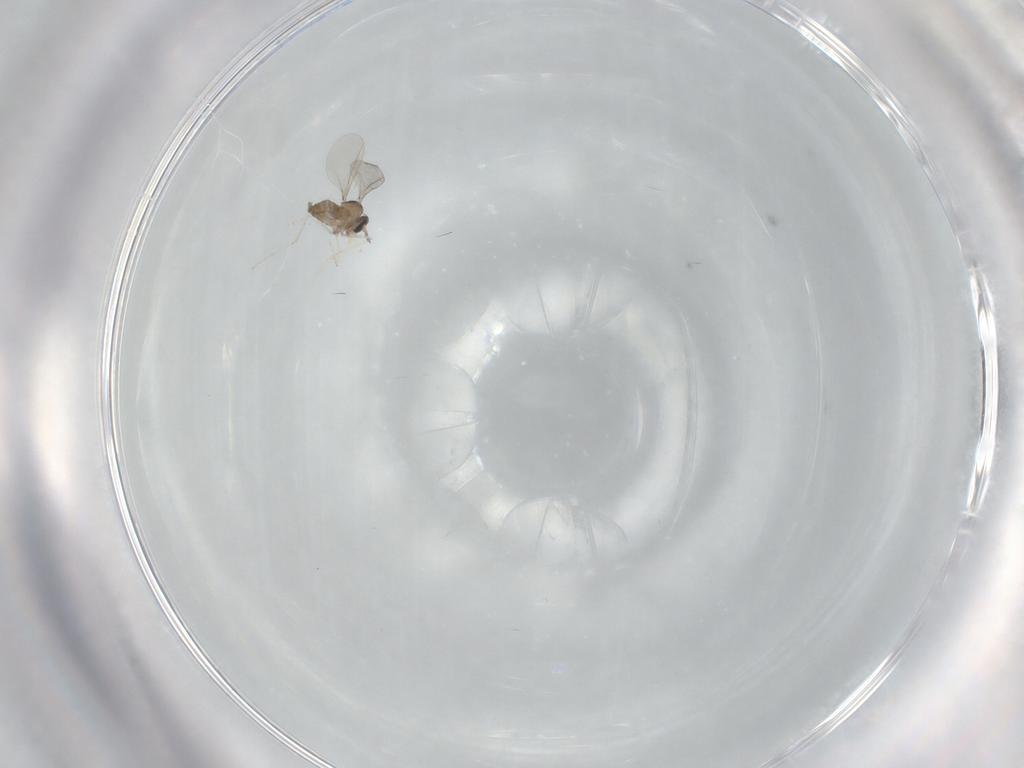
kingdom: Animalia
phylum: Arthropoda
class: Insecta
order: Diptera
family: Cecidomyiidae
